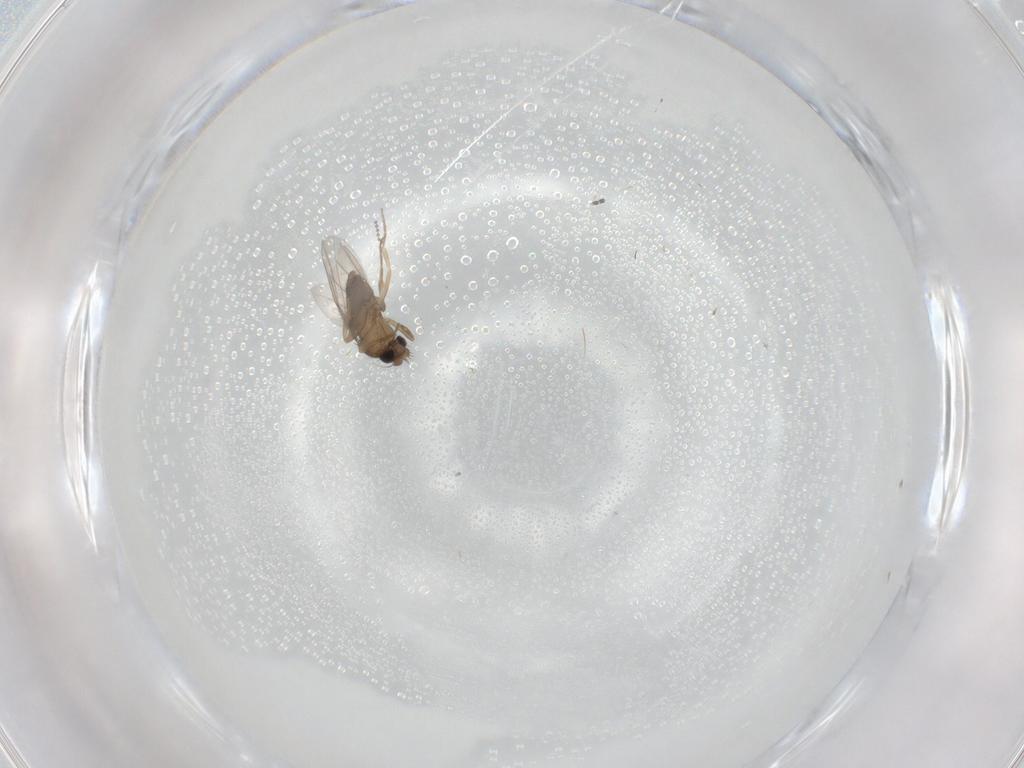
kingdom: Animalia
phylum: Arthropoda
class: Insecta
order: Diptera
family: Sciaridae
